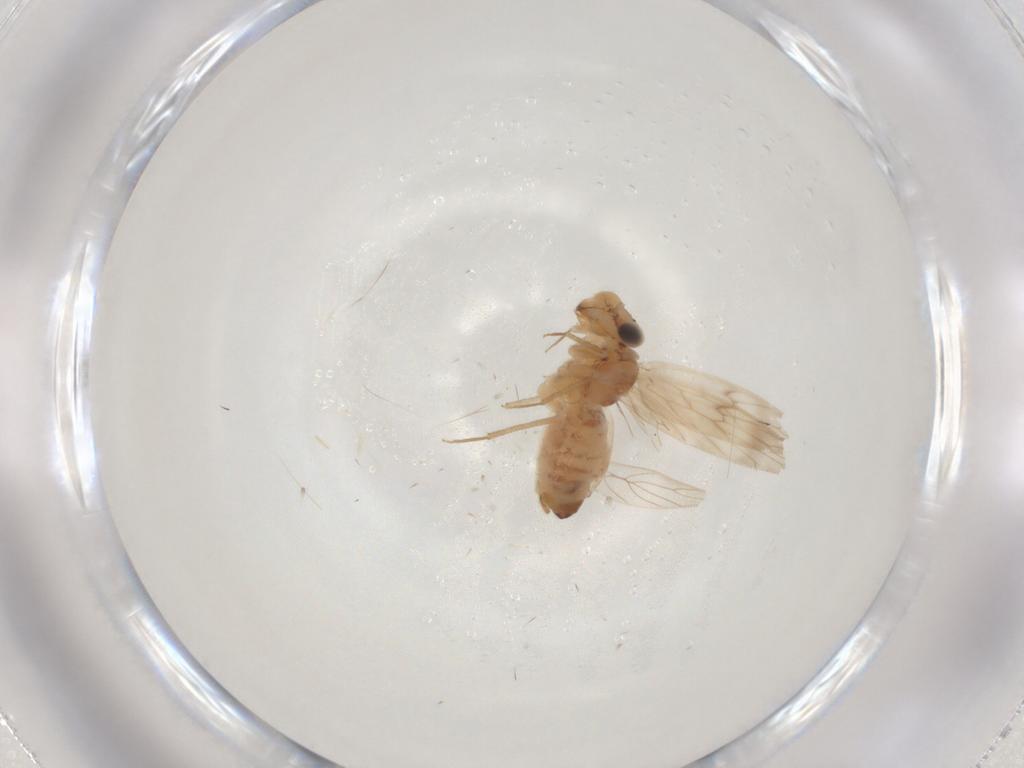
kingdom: Animalia
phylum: Arthropoda
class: Insecta
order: Psocodea
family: Lepidopsocidae
